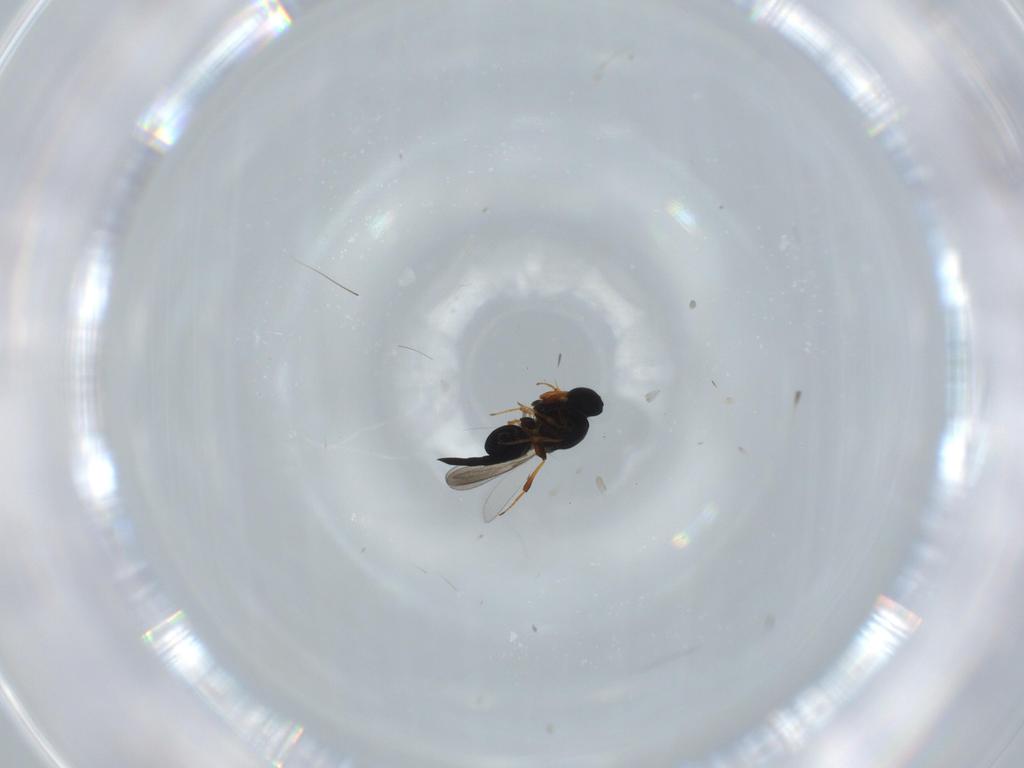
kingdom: Animalia
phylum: Arthropoda
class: Insecta
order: Hymenoptera
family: Platygastridae
